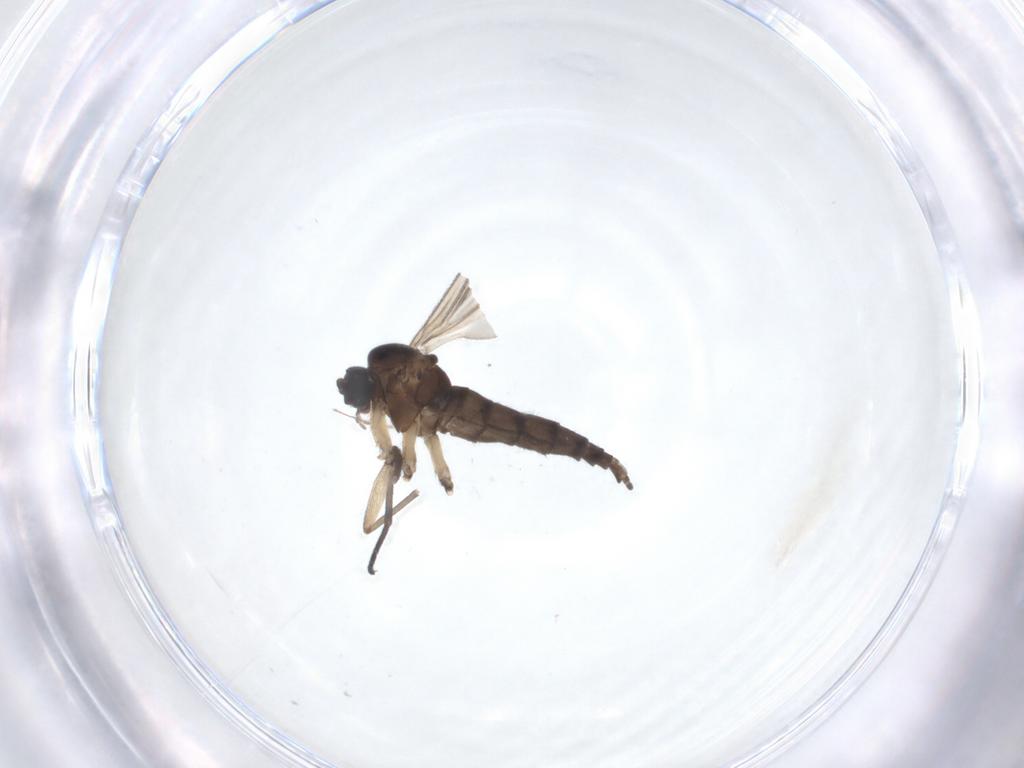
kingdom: Animalia
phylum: Arthropoda
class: Insecta
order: Diptera
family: Sciaridae
